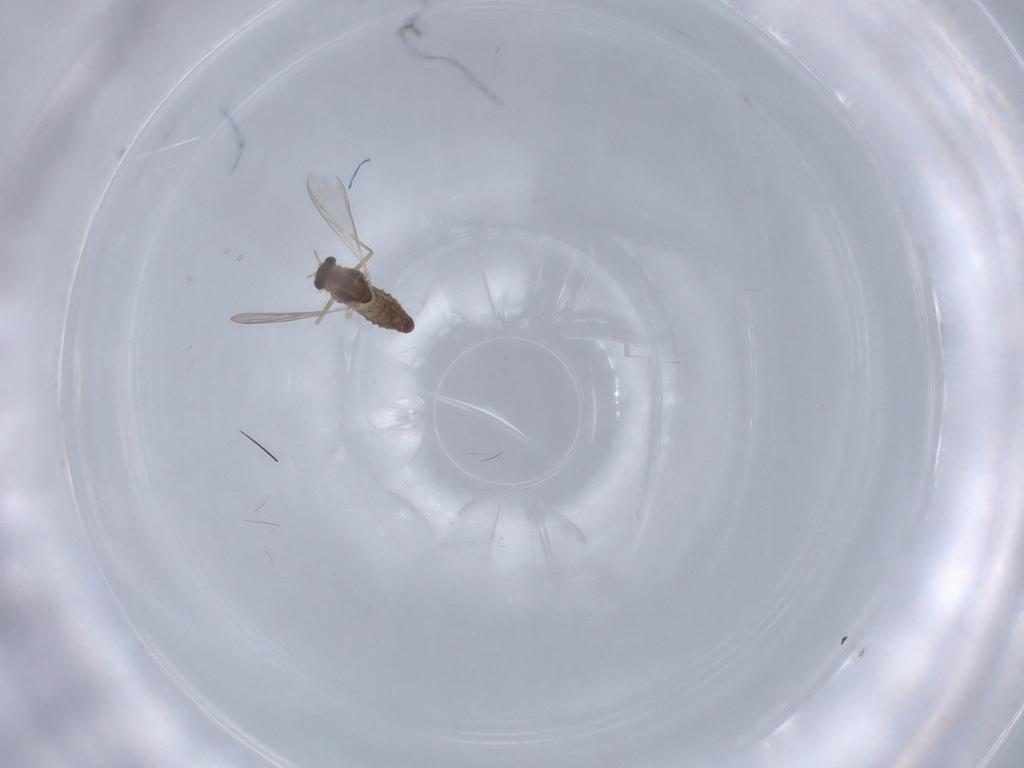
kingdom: Animalia
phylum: Arthropoda
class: Insecta
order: Diptera
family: Chironomidae
